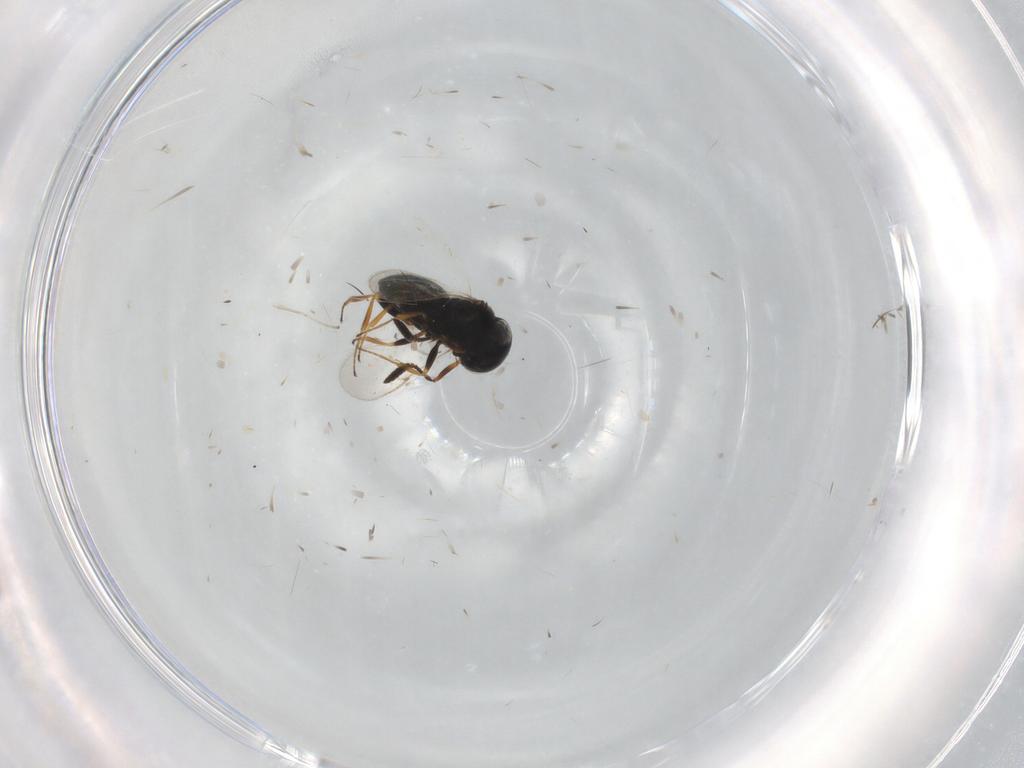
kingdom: Animalia
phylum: Arthropoda
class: Insecta
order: Coleoptera
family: Curculionidae
